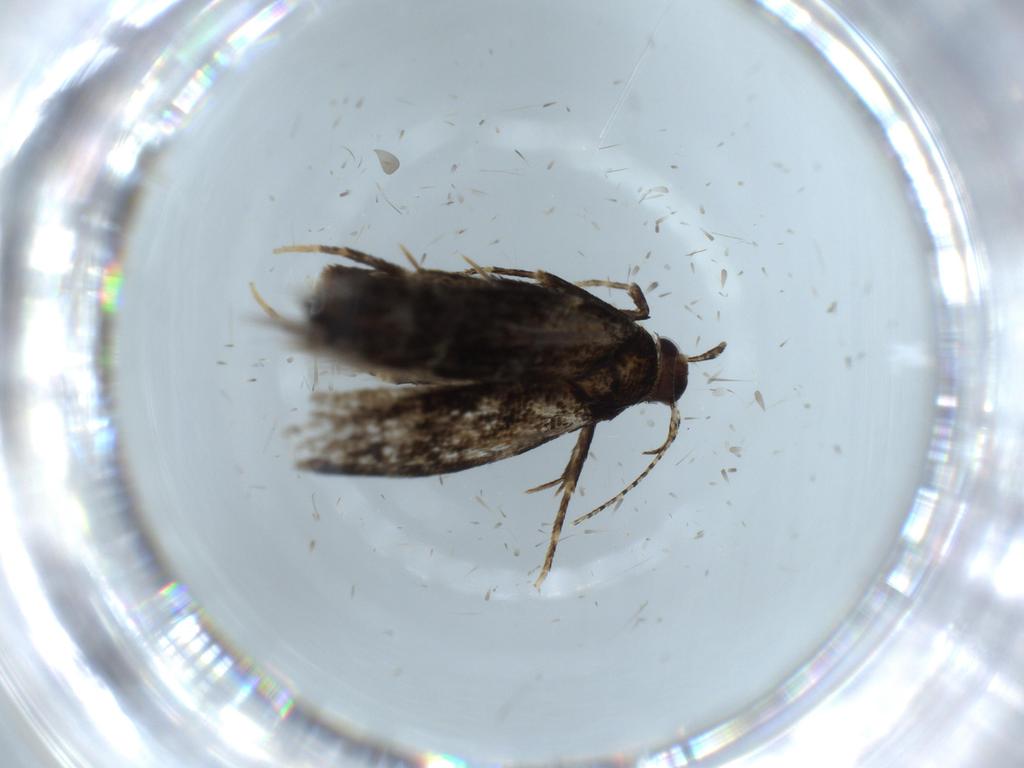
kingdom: Animalia
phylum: Arthropoda
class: Insecta
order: Lepidoptera
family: Cosmopterigidae
